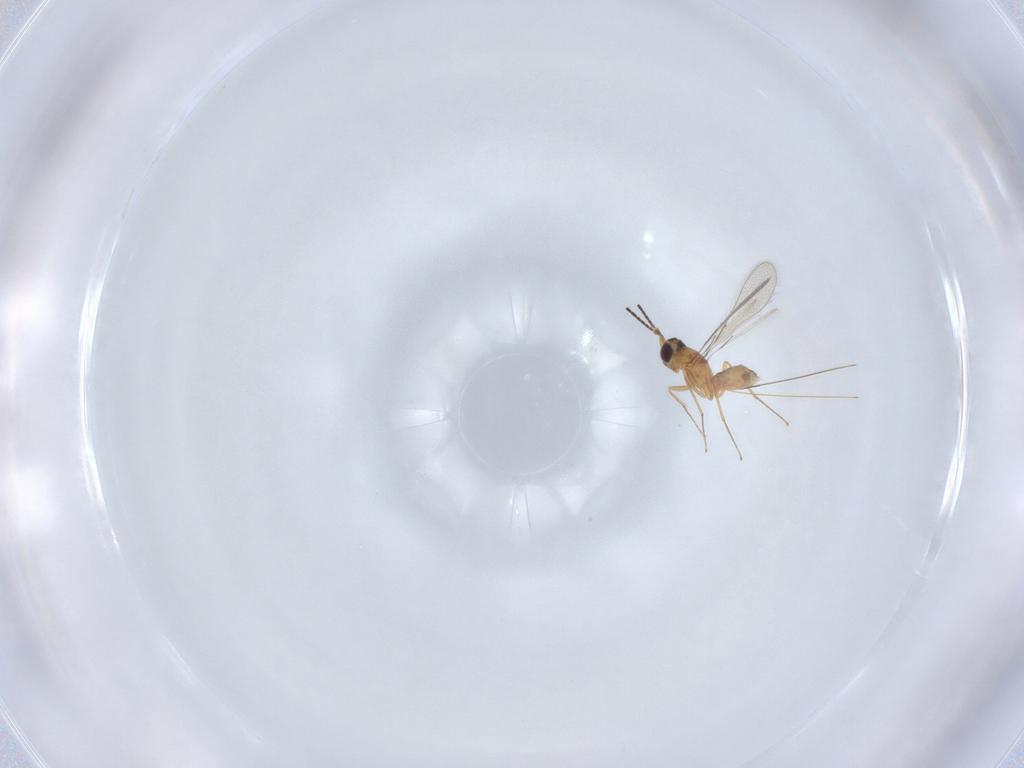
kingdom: Animalia
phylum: Arthropoda
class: Insecta
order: Hymenoptera
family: Mymaridae
